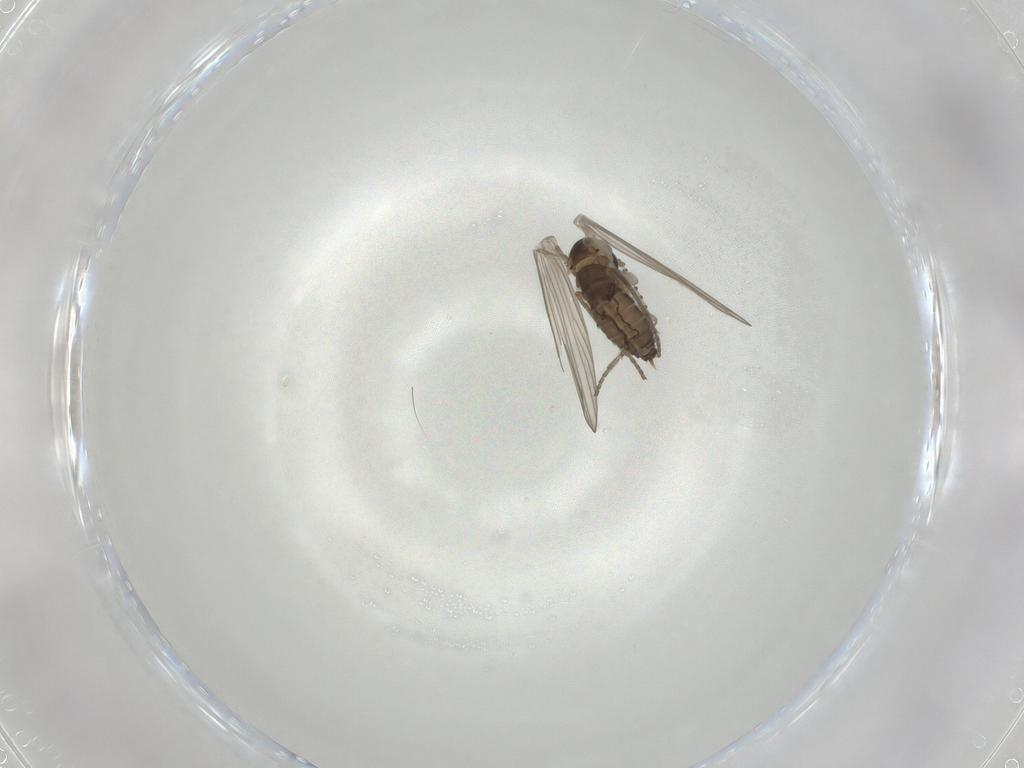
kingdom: Animalia
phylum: Arthropoda
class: Insecta
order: Diptera
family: Psychodidae
